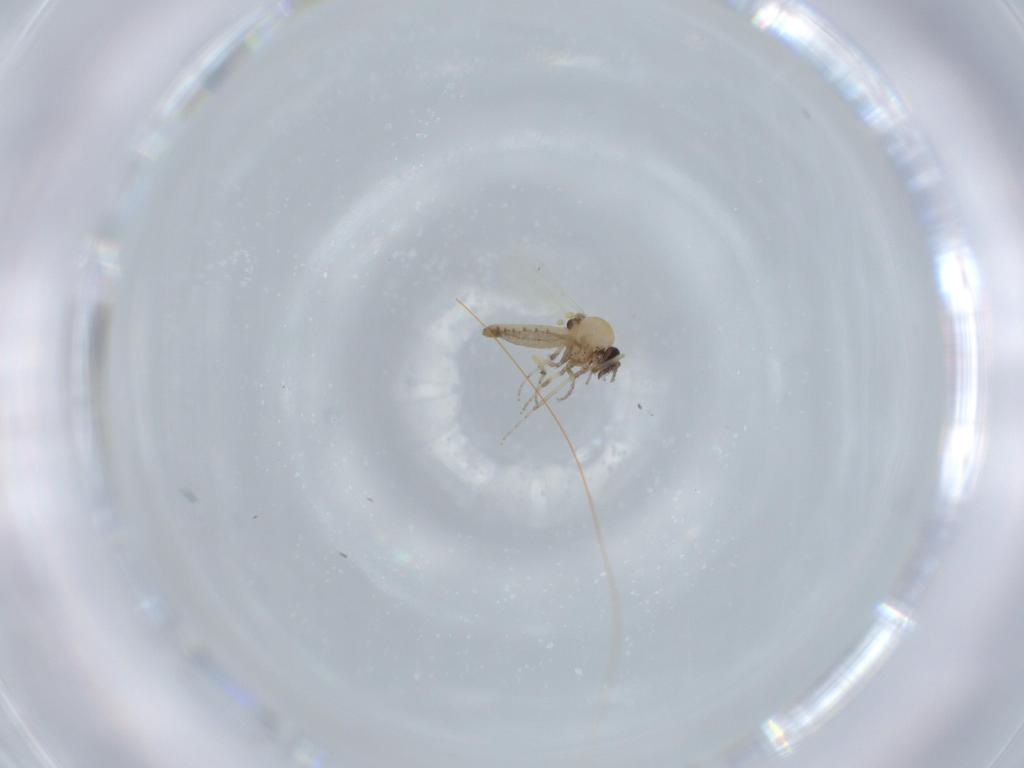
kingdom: Animalia
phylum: Arthropoda
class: Insecta
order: Diptera
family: Ceratopogonidae
